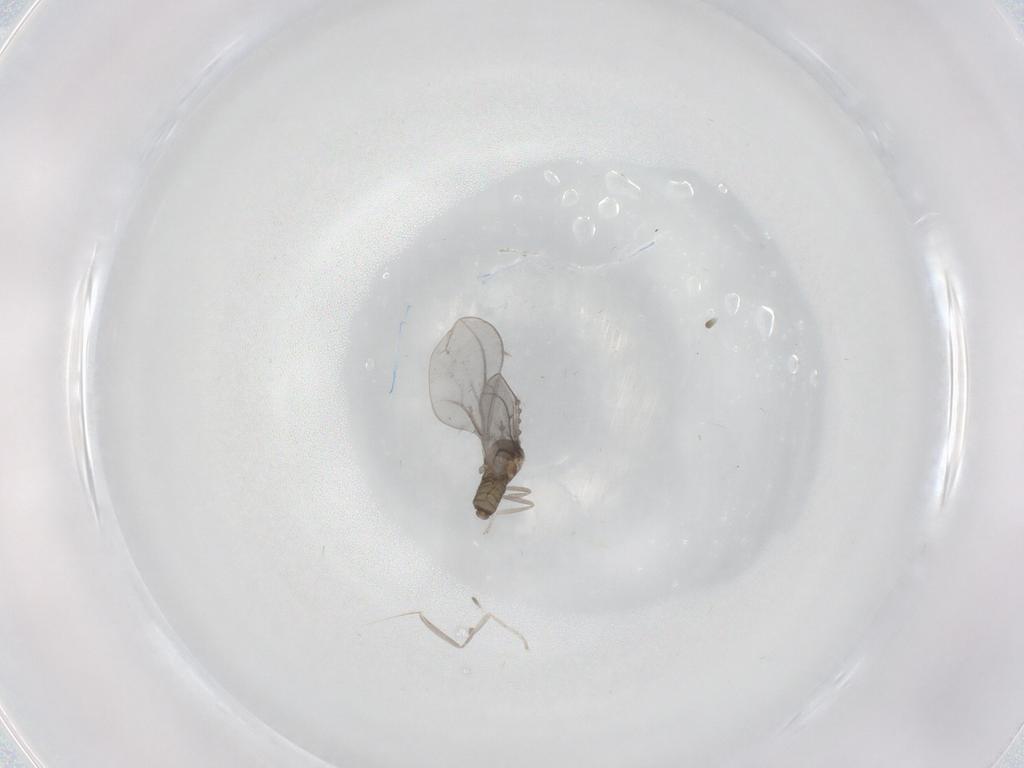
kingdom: Animalia
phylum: Arthropoda
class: Insecta
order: Diptera
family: Cecidomyiidae
